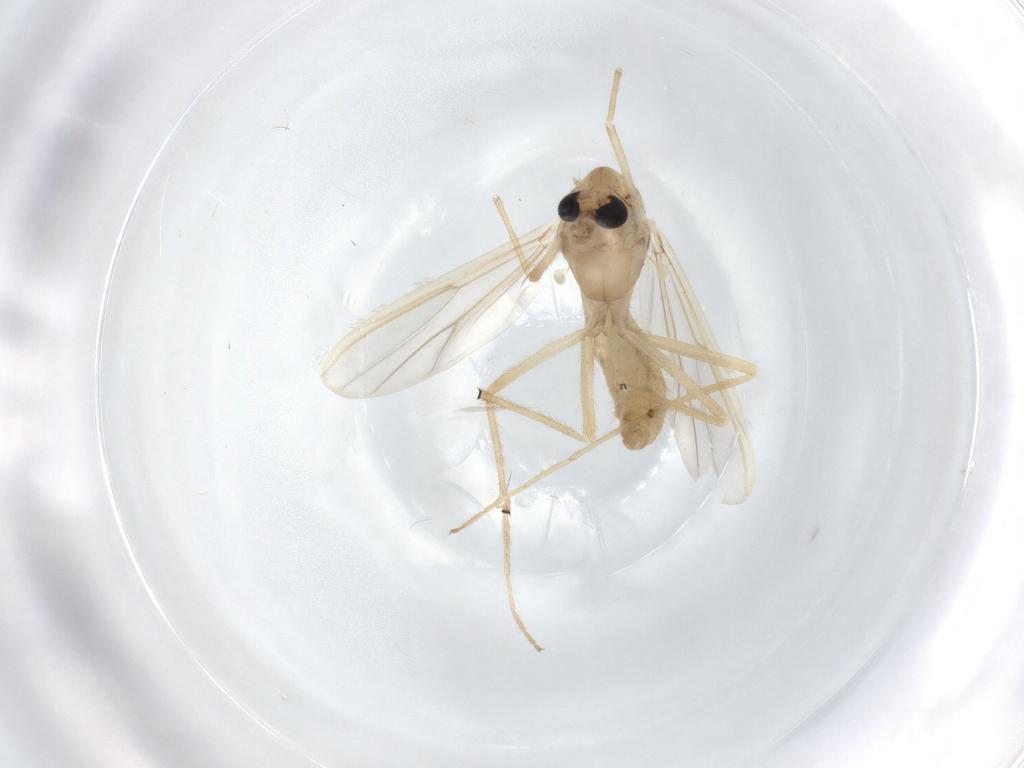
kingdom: Animalia
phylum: Arthropoda
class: Insecta
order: Diptera
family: Chironomidae
